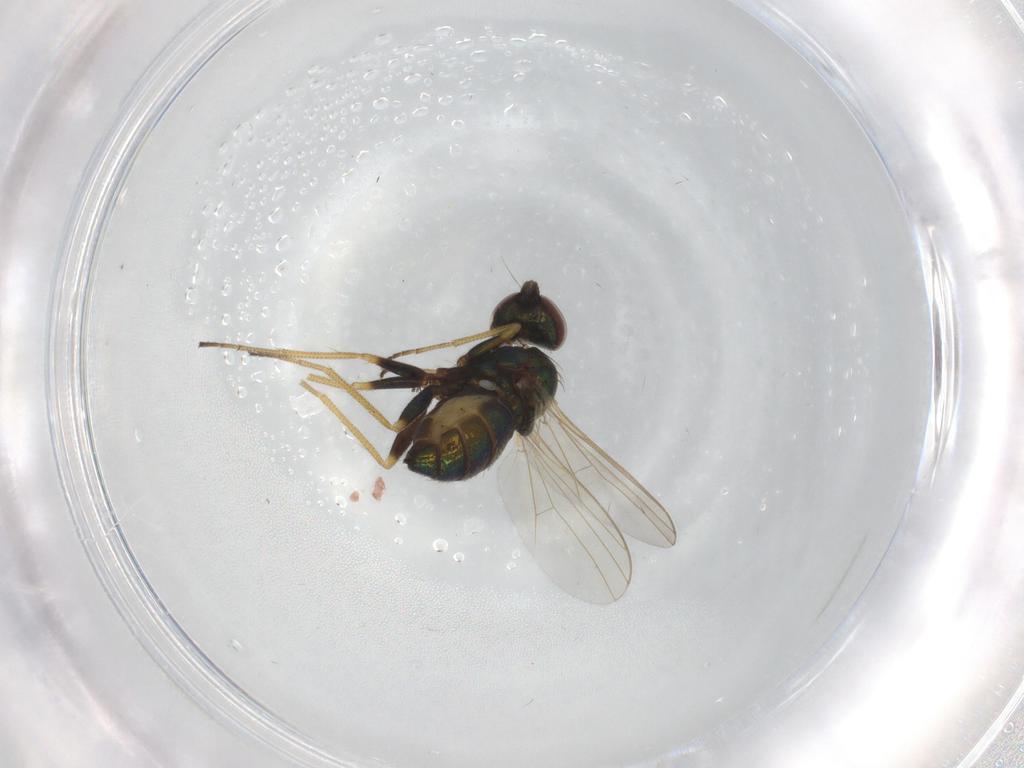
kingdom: Animalia
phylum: Arthropoda
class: Insecta
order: Diptera
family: Dolichopodidae
